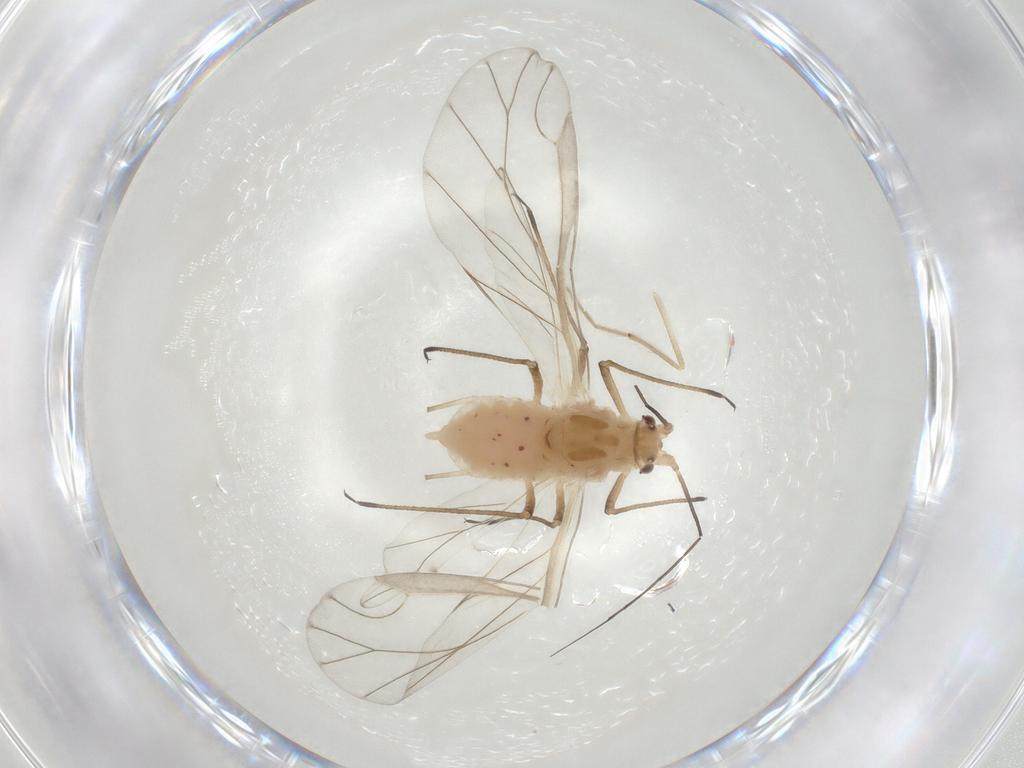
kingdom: Animalia
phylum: Arthropoda
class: Insecta
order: Hemiptera
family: Aphididae
